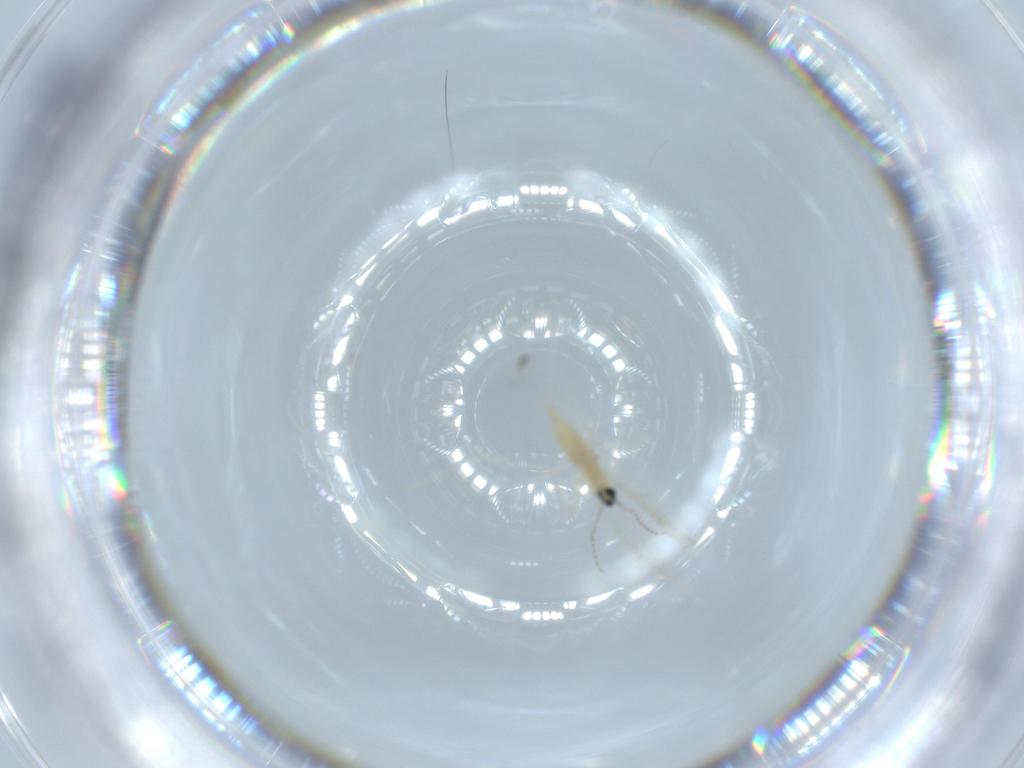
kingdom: Animalia
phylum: Arthropoda
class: Insecta
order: Diptera
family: Cecidomyiidae
